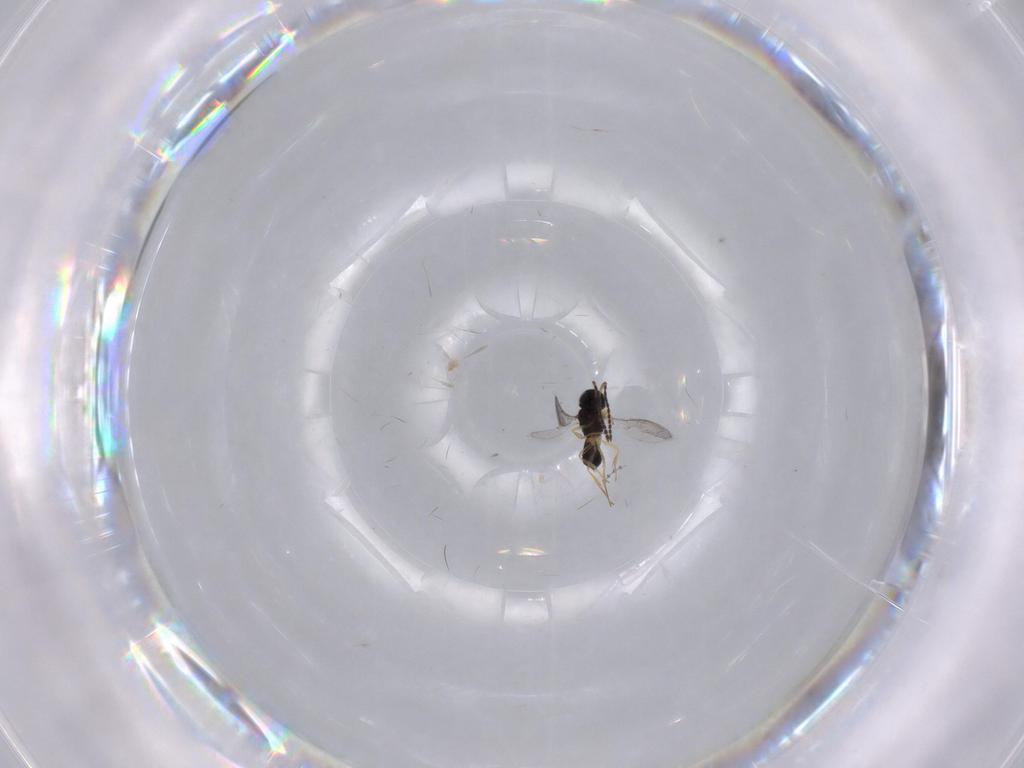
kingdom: Animalia
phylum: Arthropoda
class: Insecta
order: Hymenoptera
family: Scelionidae
